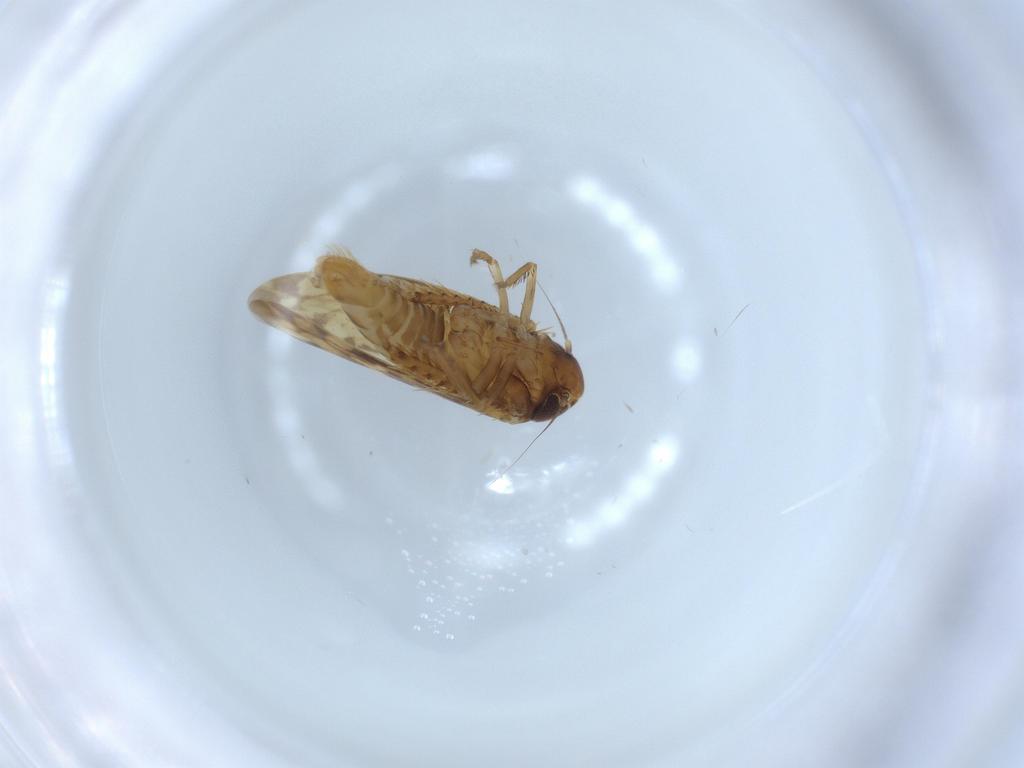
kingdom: Animalia
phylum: Arthropoda
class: Insecta
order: Hemiptera
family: Cicadellidae
